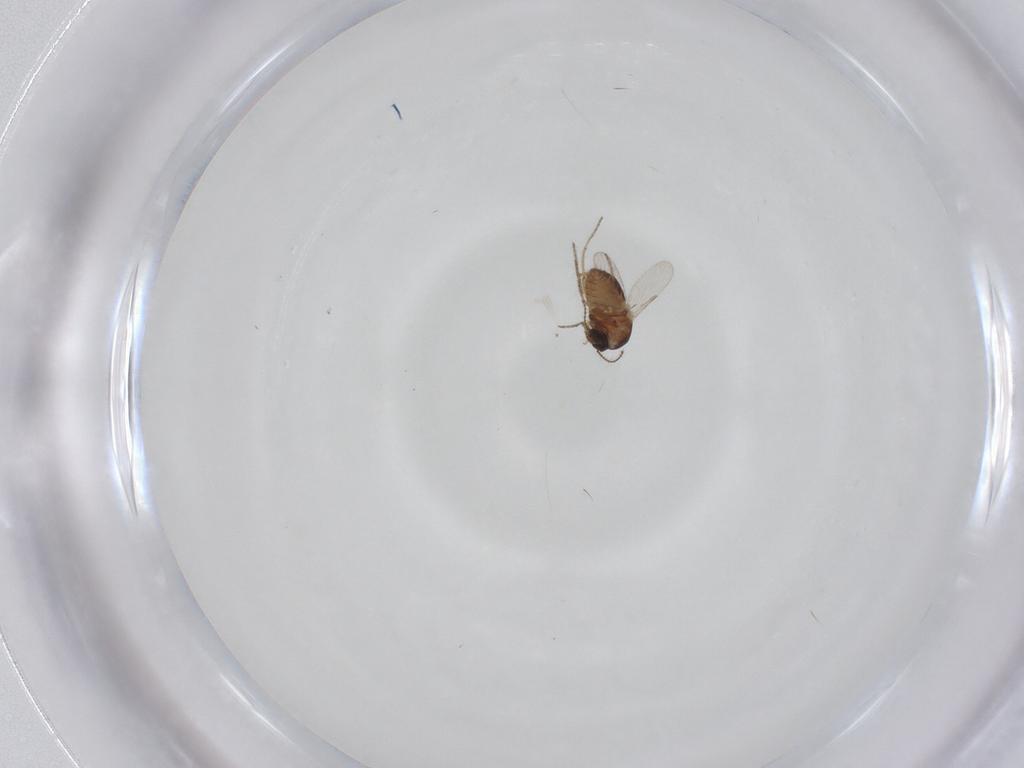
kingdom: Animalia
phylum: Arthropoda
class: Insecta
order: Diptera
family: Ceratopogonidae
